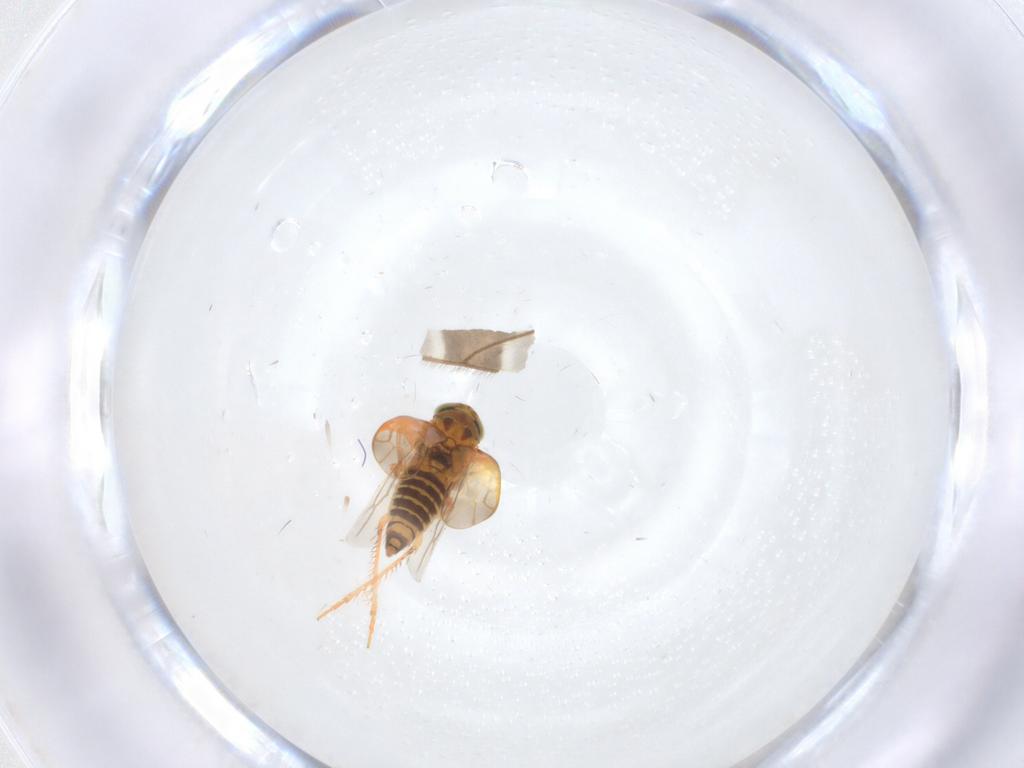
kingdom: Animalia
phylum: Arthropoda
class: Insecta
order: Hemiptera
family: Cicadellidae
